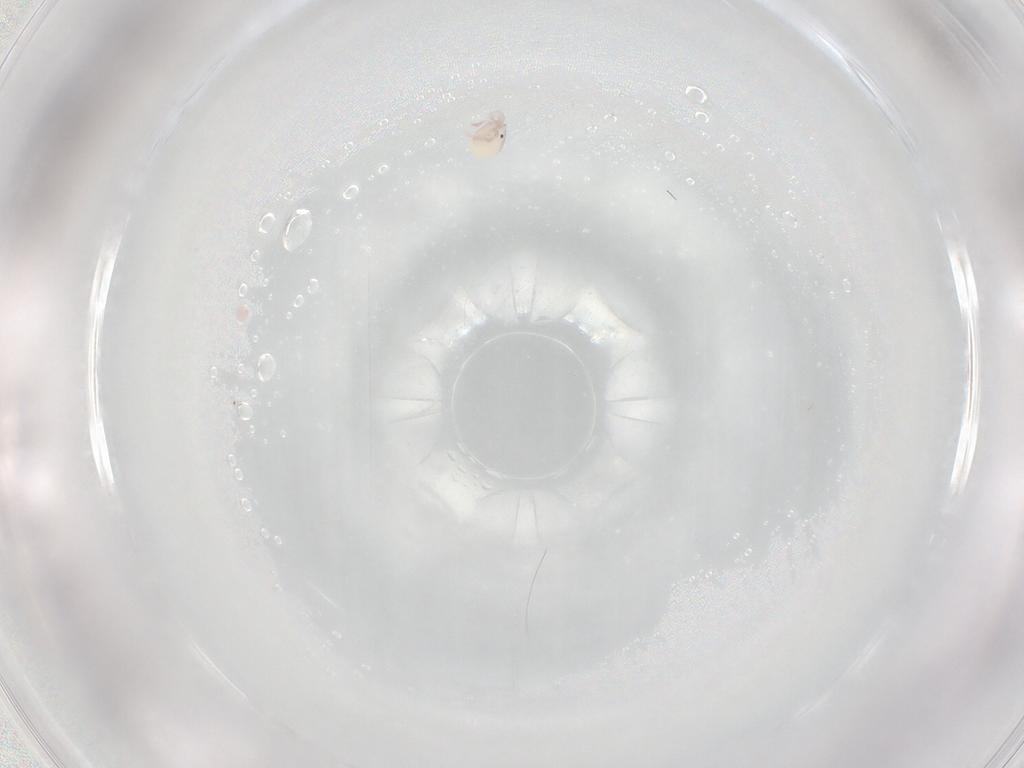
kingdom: Animalia
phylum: Arthropoda
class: Arachnida
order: Trombidiformes
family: Lebertiidae
